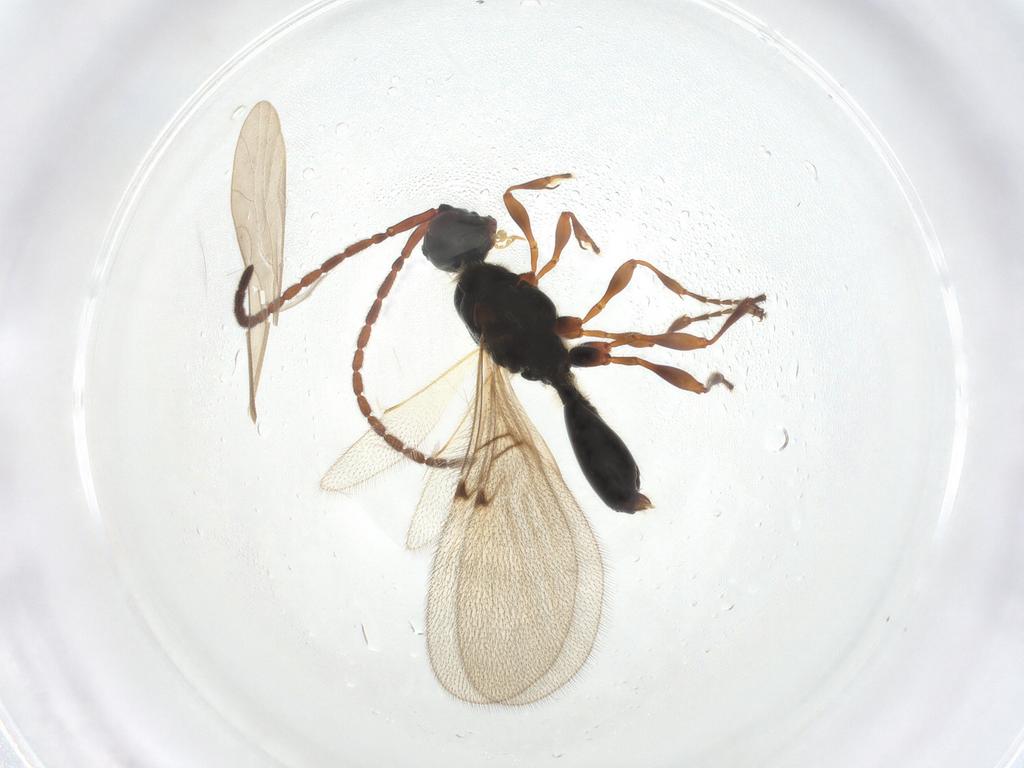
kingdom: Animalia
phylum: Arthropoda
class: Insecta
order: Hymenoptera
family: Diapriidae
